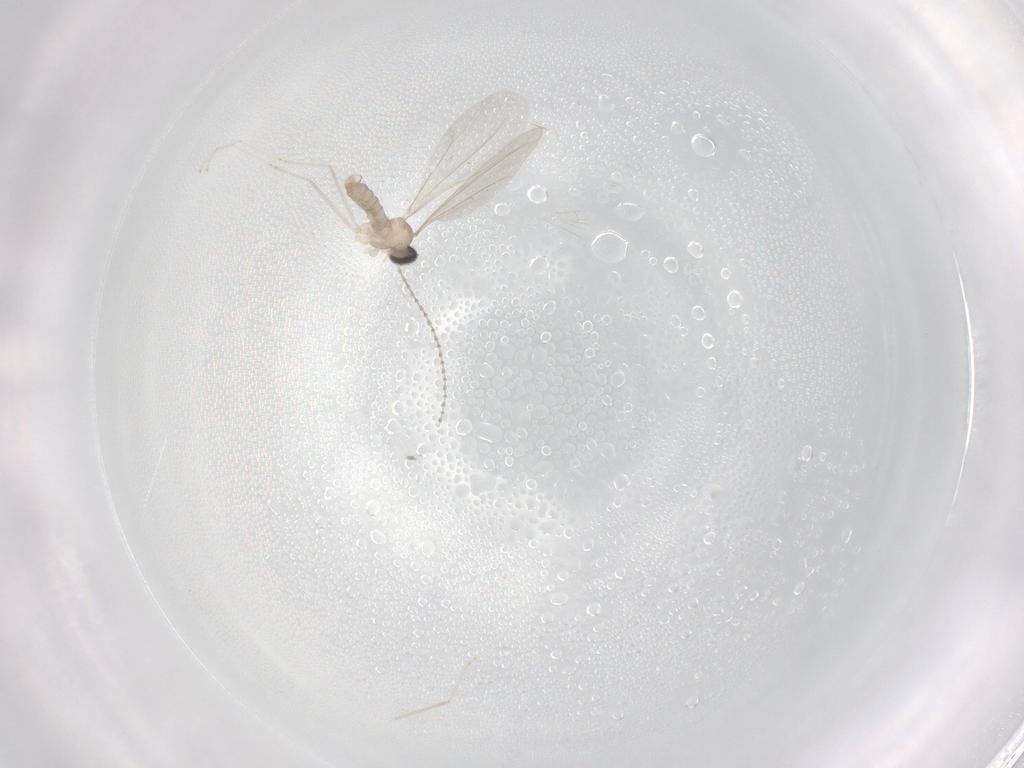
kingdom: Animalia
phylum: Arthropoda
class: Insecta
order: Diptera
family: Cecidomyiidae
